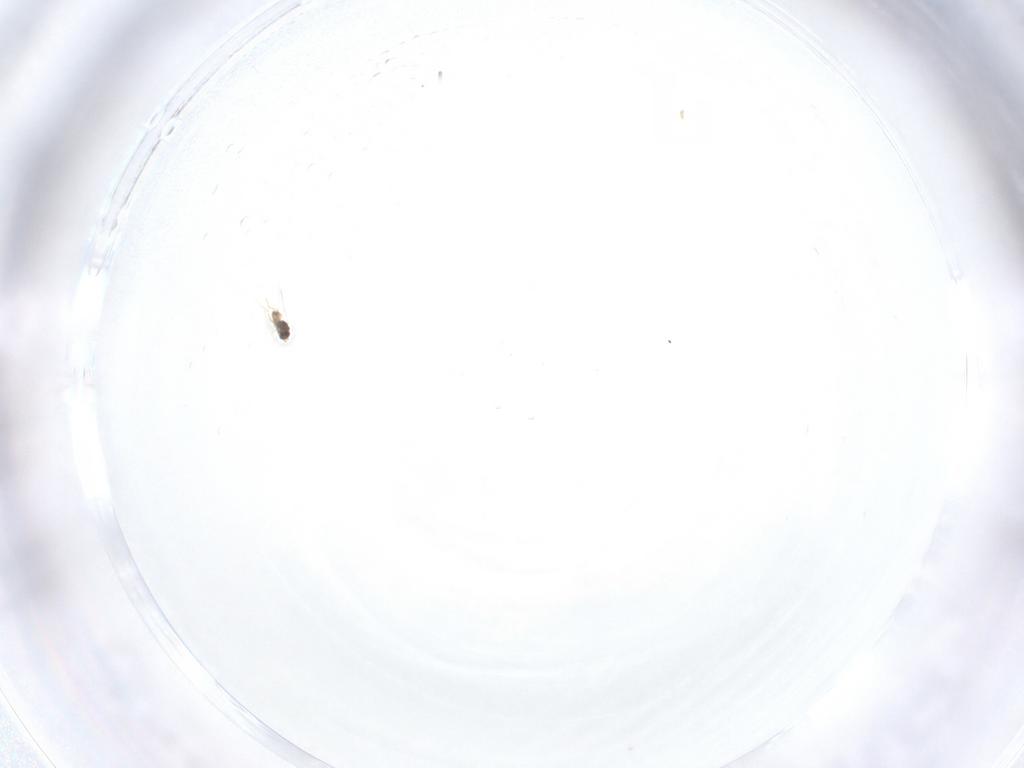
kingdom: Animalia
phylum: Arthropoda
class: Insecta
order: Hymenoptera
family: Mymaridae
